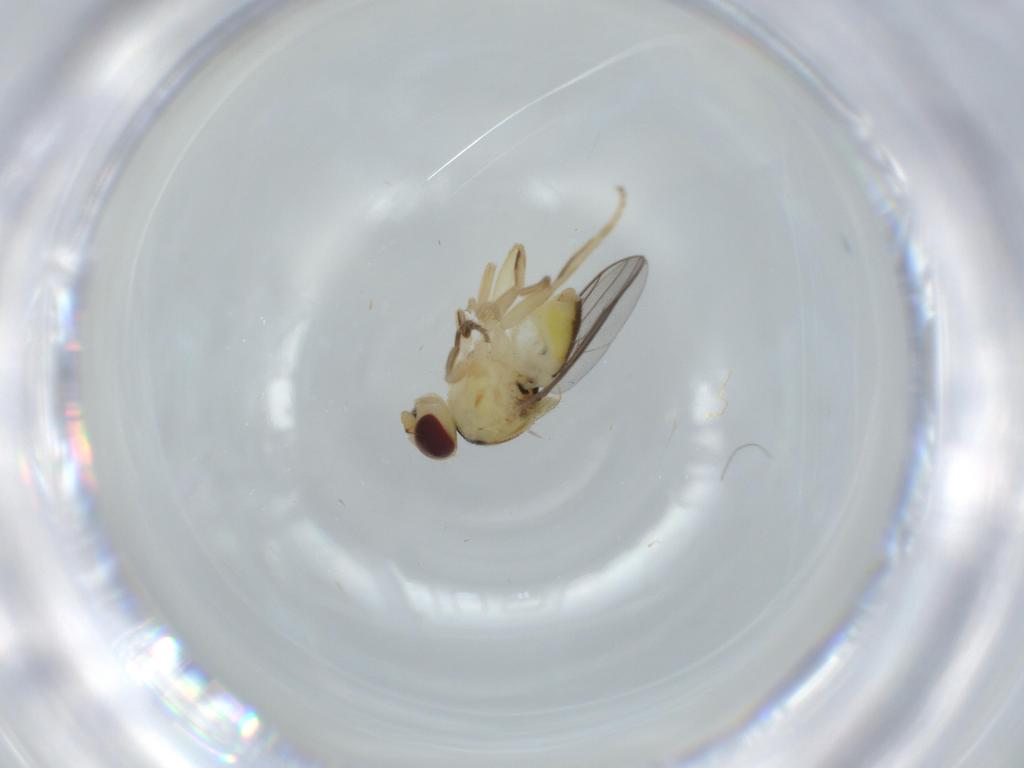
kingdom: Animalia
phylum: Arthropoda
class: Insecta
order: Diptera
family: Chloropidae
